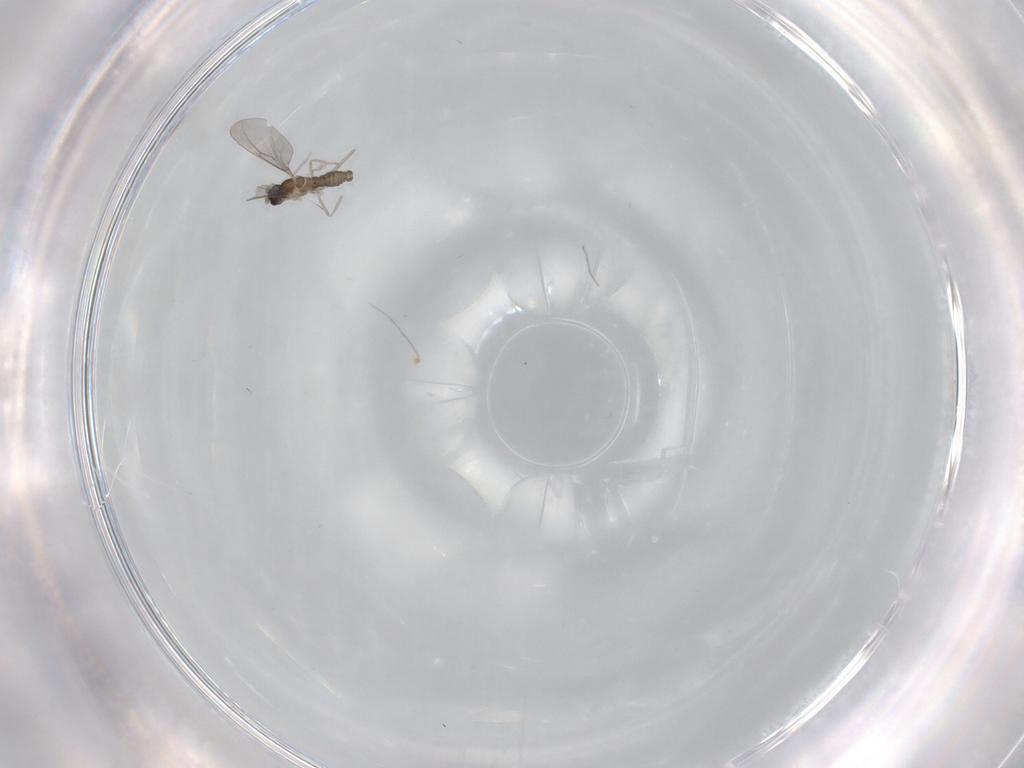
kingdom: Animalia
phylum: Arthropoda
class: Insecta
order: Diptera
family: Cecidomyiidae
